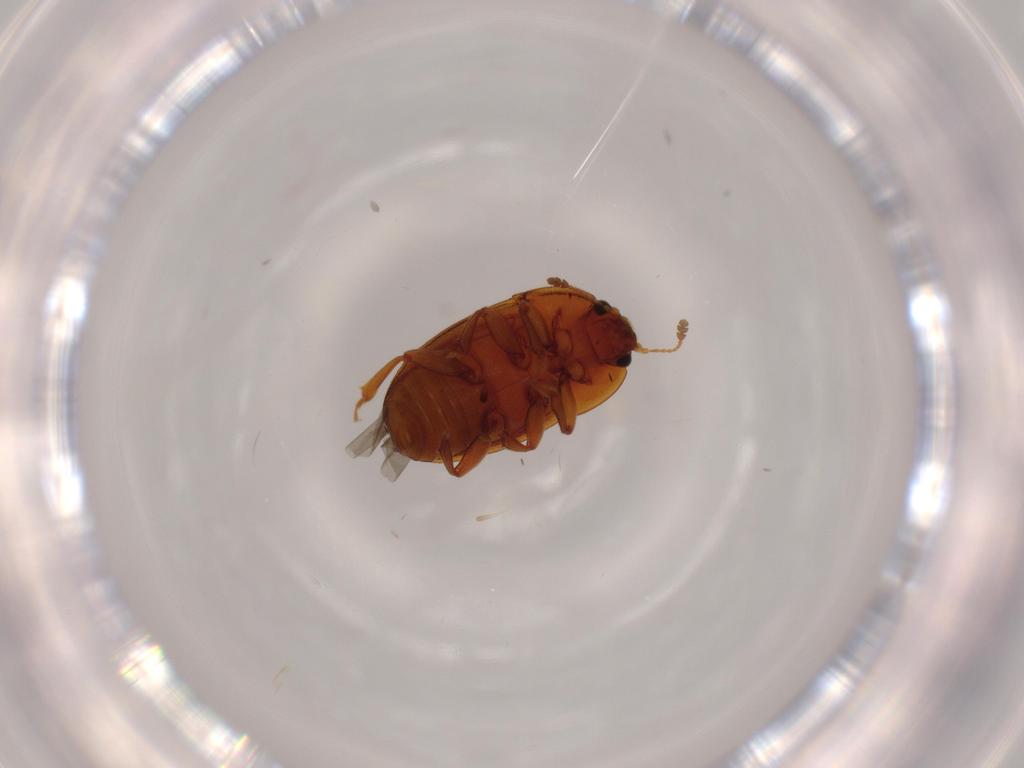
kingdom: Animalia
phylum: Arthropoda
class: Insecta
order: Coleoptera
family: Nitidulidae
